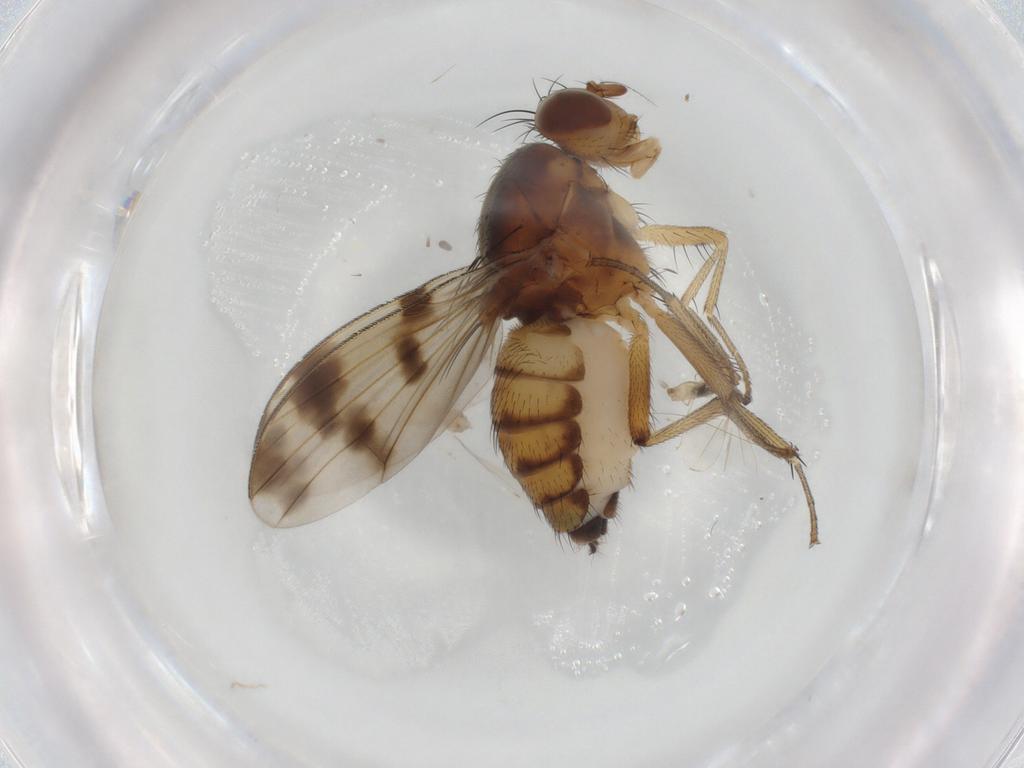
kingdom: Animalia
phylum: Arthropoda
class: Insecta
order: Diptera
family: Cecidomyiidae
